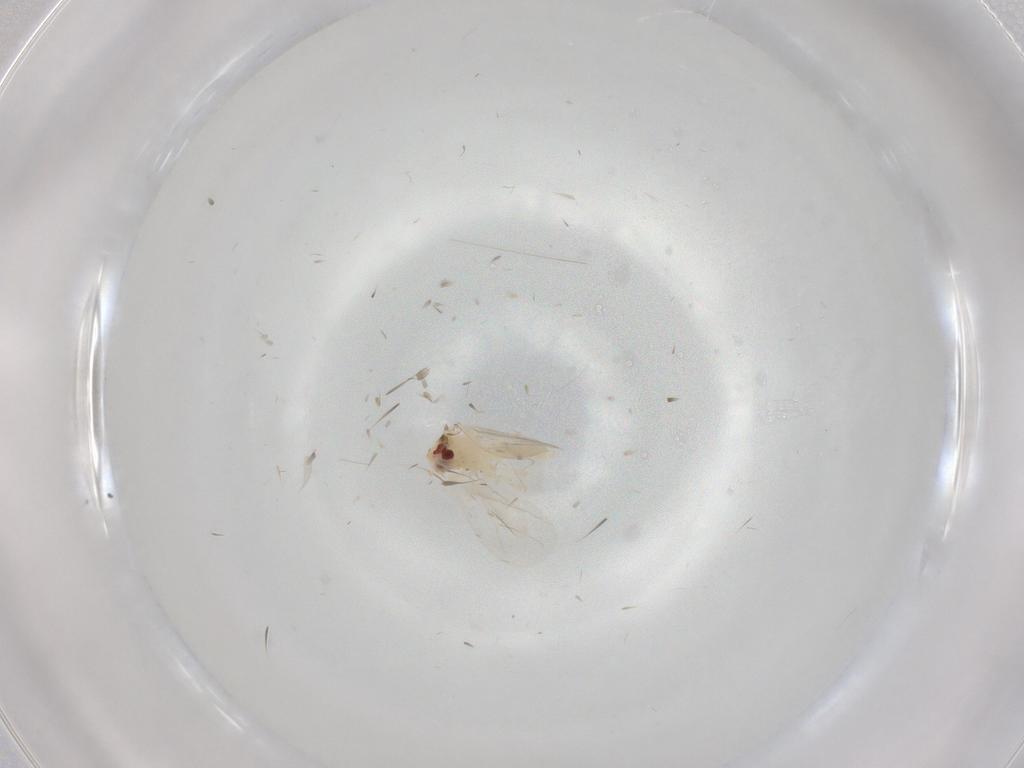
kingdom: Animalia
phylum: Arthropoda
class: Insecta
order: Hemiptera
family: Aleyrodidae
